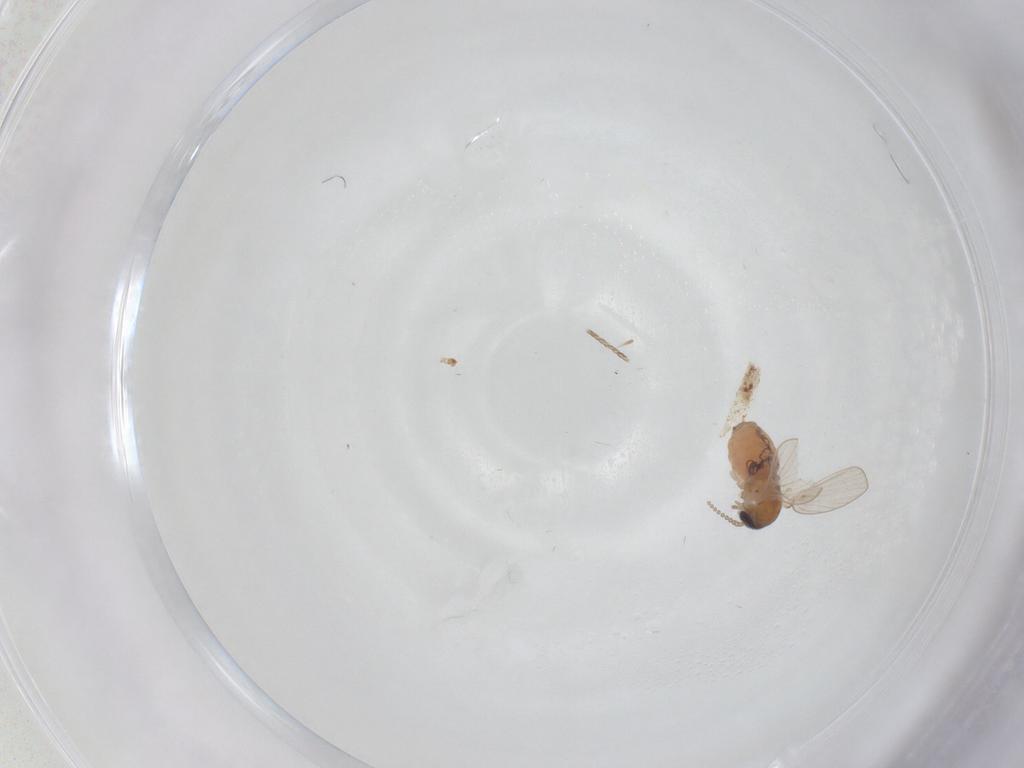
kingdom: Animalia
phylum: Arthropoda
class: Insecta
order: Diptera
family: Psychodidae
